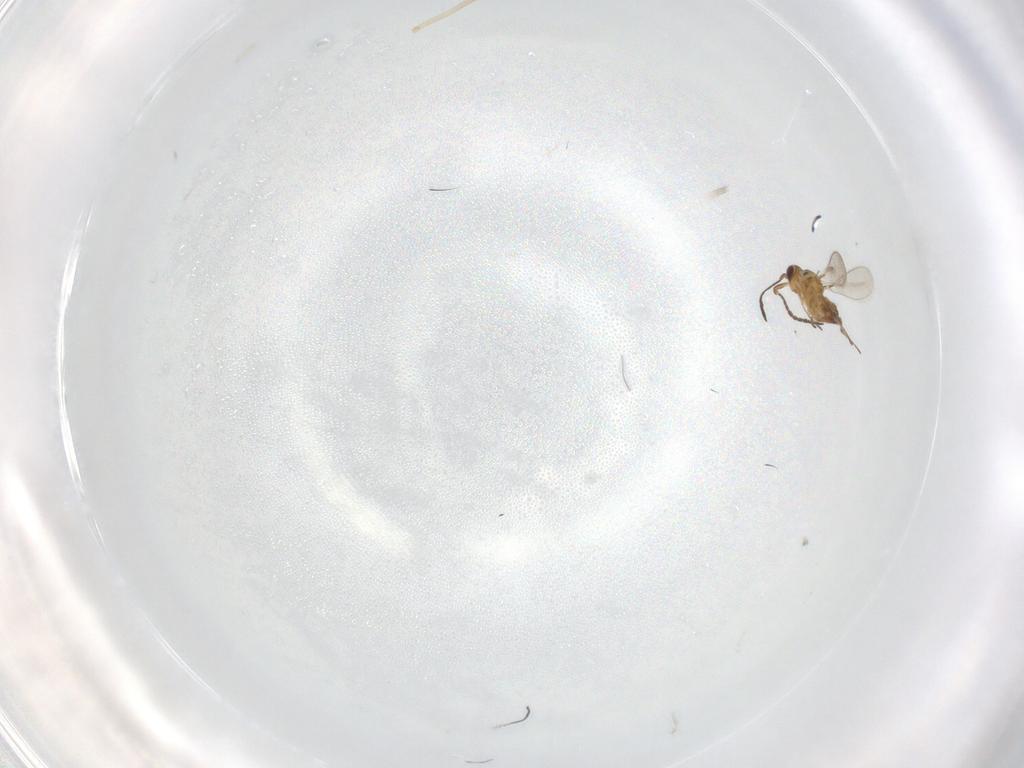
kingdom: Animalia
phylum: Arthropoda
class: Insecta
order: Hymenoptera
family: Mymaridae
